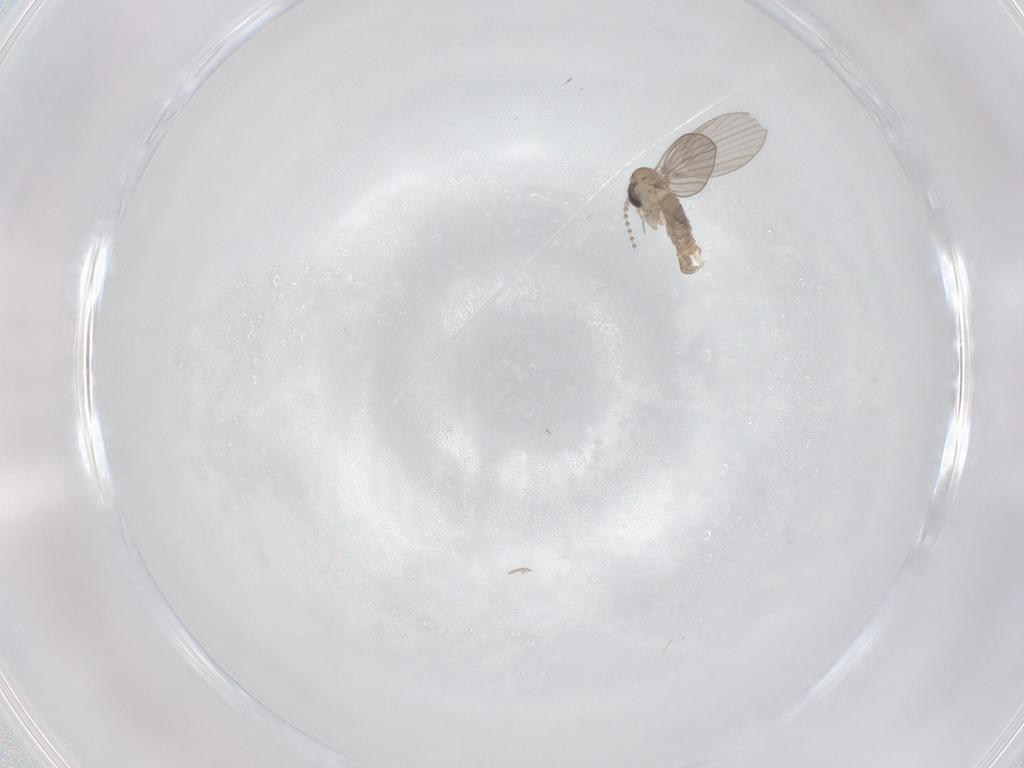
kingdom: Animalia
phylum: Arthropoda
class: Insecta
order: Diptera
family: Psychodidae
